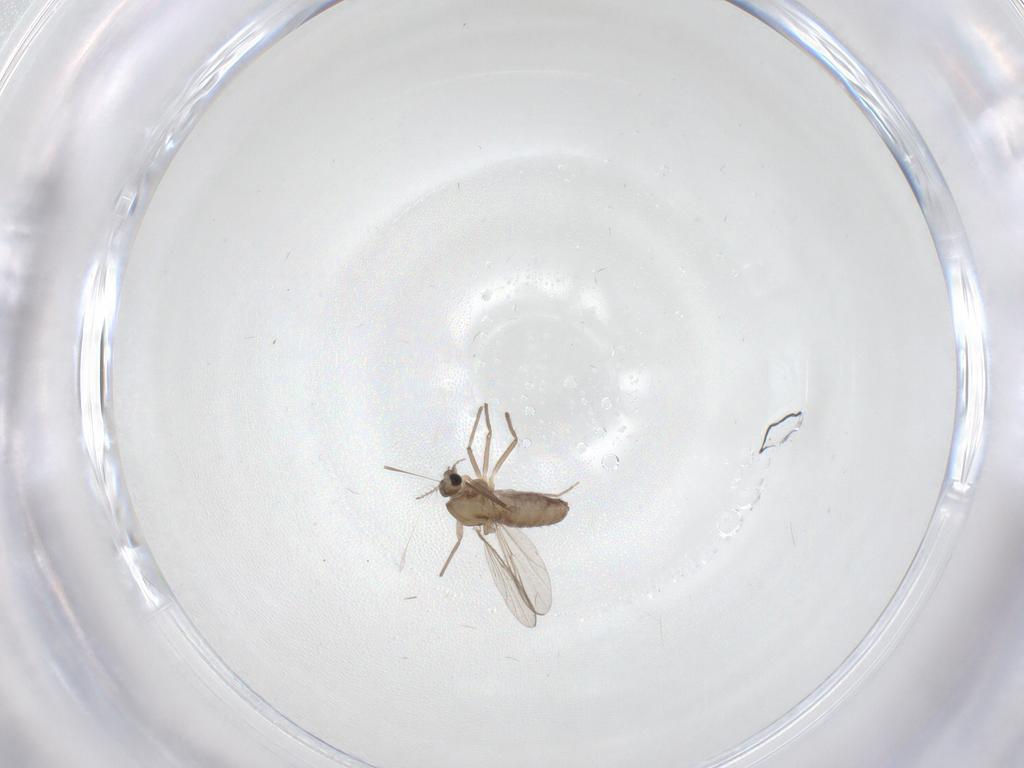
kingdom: Animalia
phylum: Arthropoda
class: Insecta
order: Diptera
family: Chironomidae
